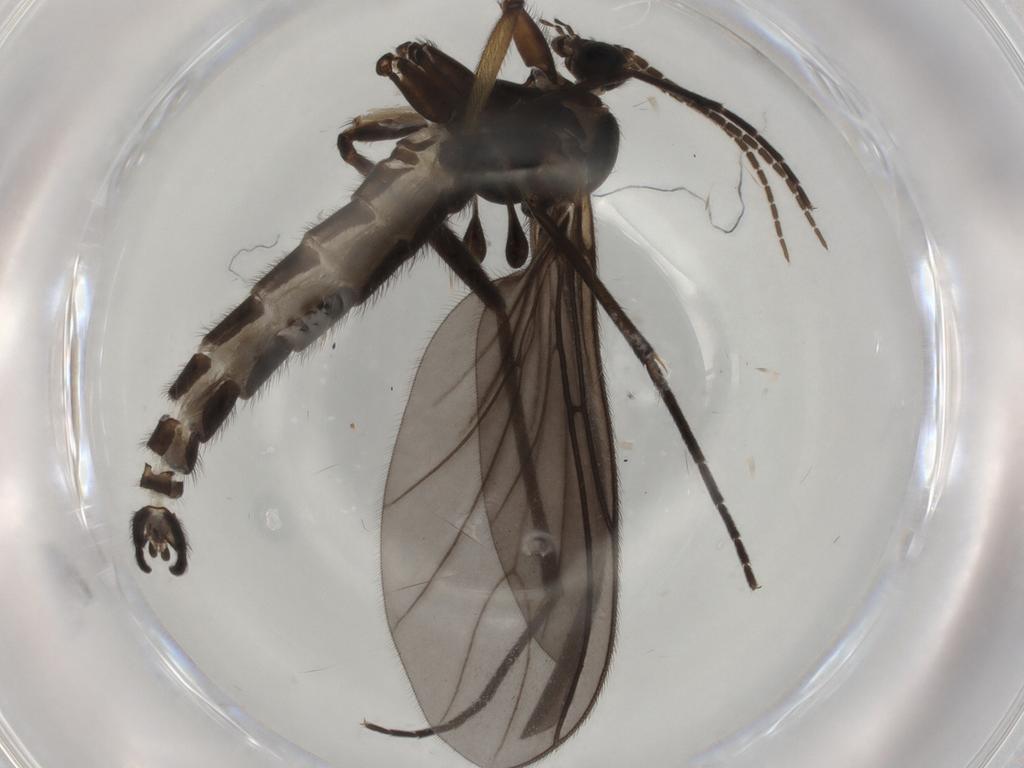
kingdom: Animalia
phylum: Arthropoda
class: Insecta
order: Diptera
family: Sciaridae
